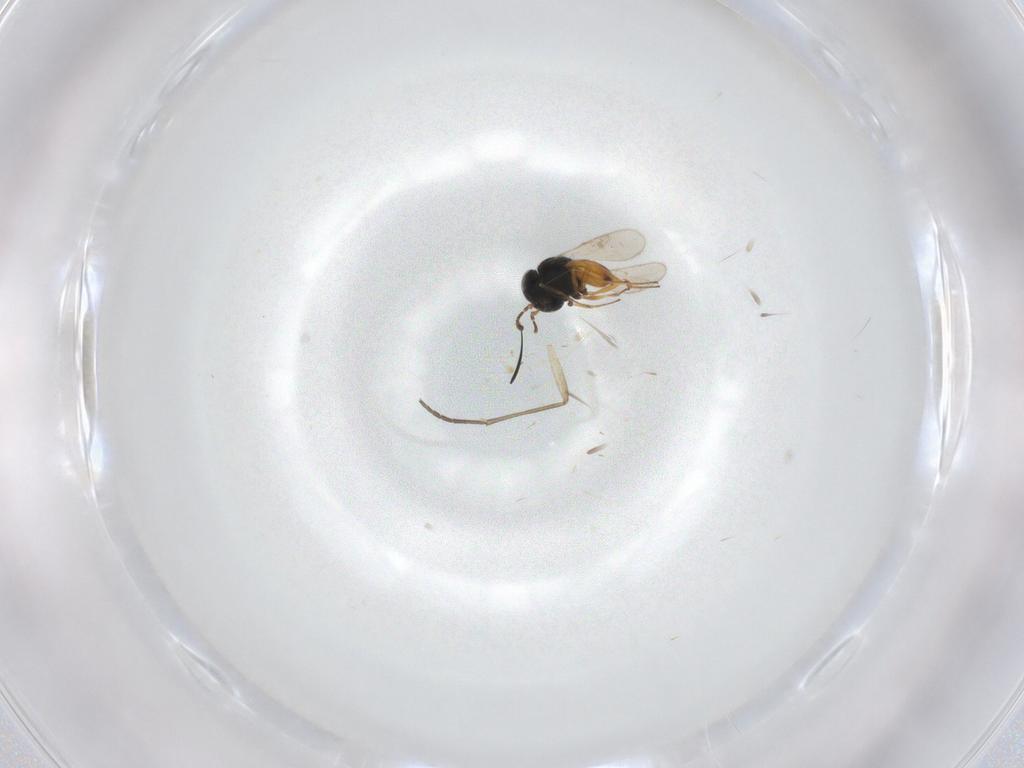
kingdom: Animalia
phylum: Arthropoda
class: Insecta
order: Hymenoptera
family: Scelionidae
